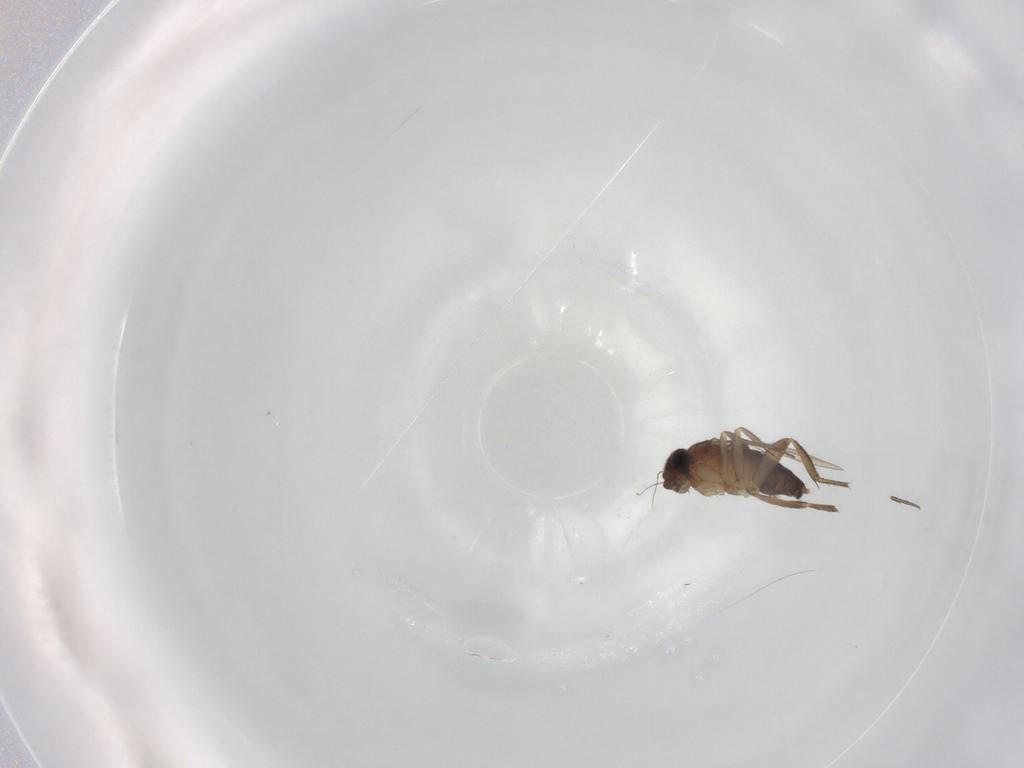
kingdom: Animalia
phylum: Arthropoda
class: Insecta
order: Diptera
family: Phoridae
